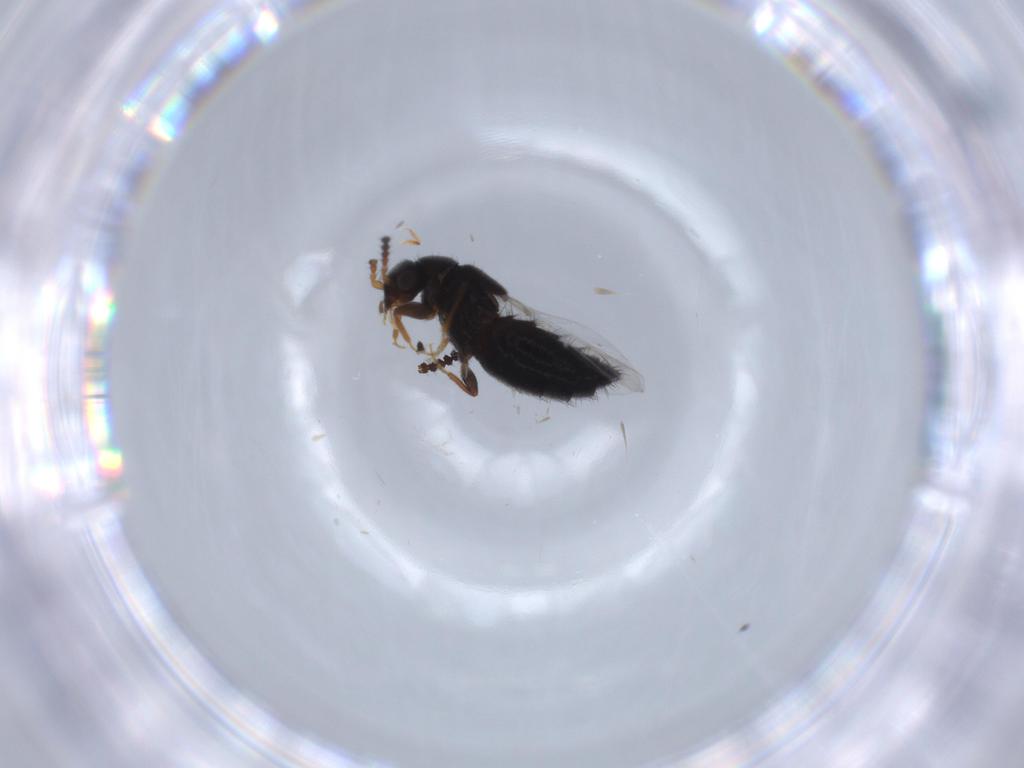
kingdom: Animalia
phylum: Arthropoda
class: Insecta
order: Coleoptera
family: Staphylinidae
